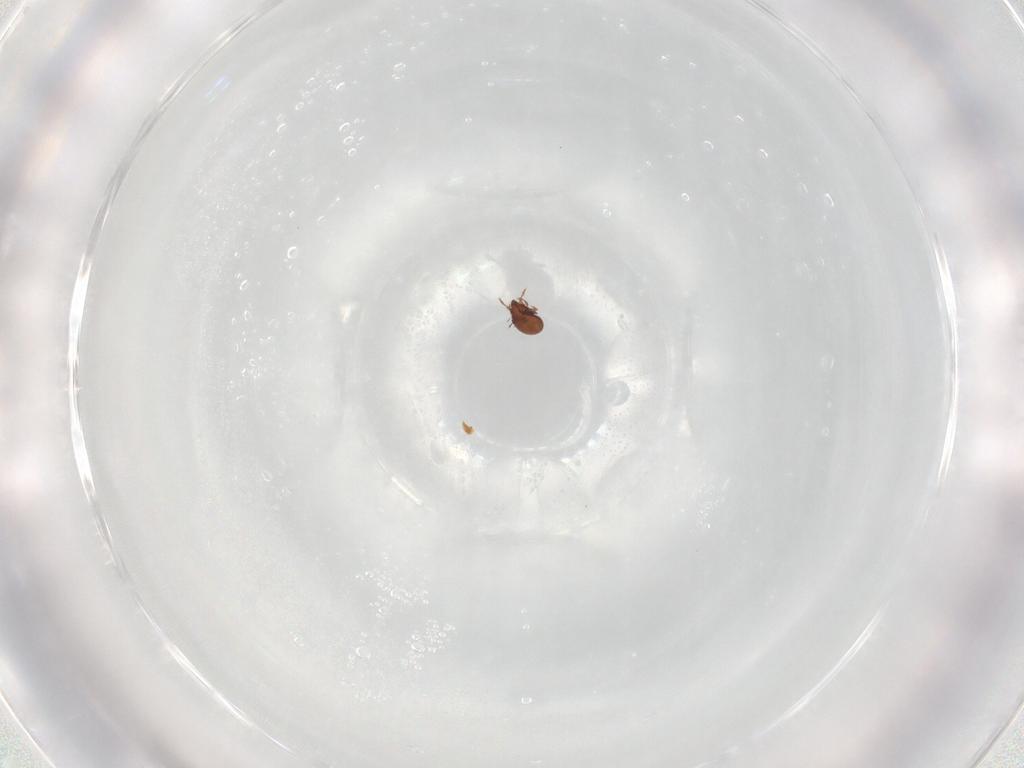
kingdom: Animalia
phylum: Arthropoda
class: Arachnida
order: Sarcoptiformes
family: Tectocepheidae
